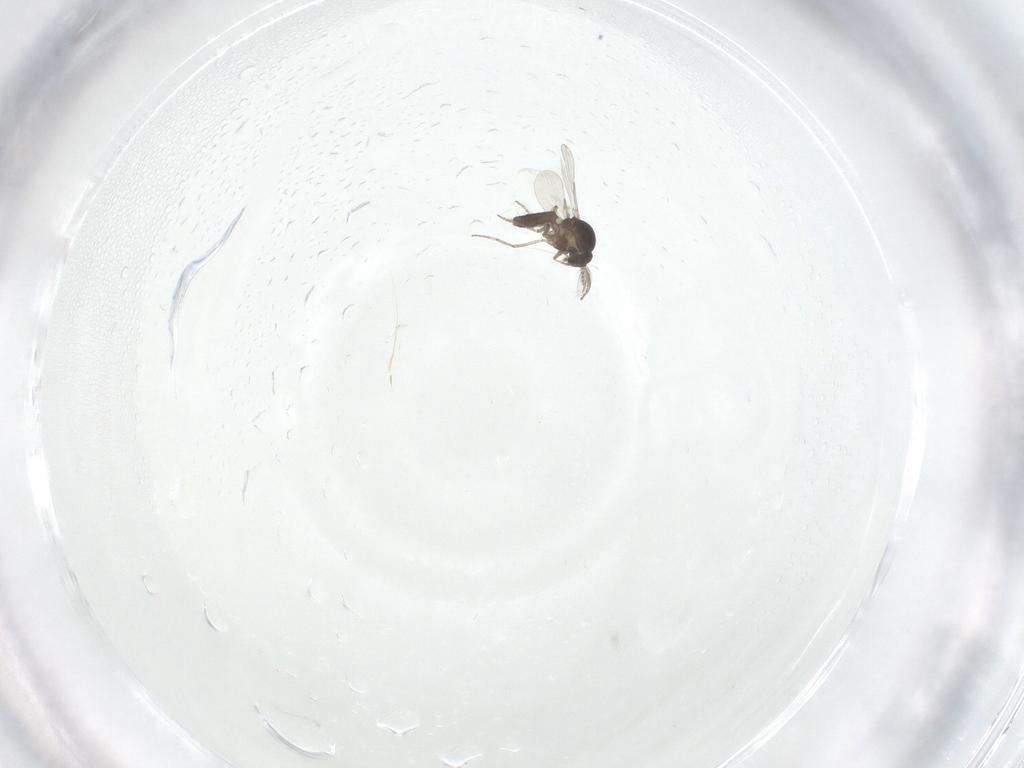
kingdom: Animalia
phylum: Arthropoda
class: Insecta
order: Diptera
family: Ceratopogonidae
